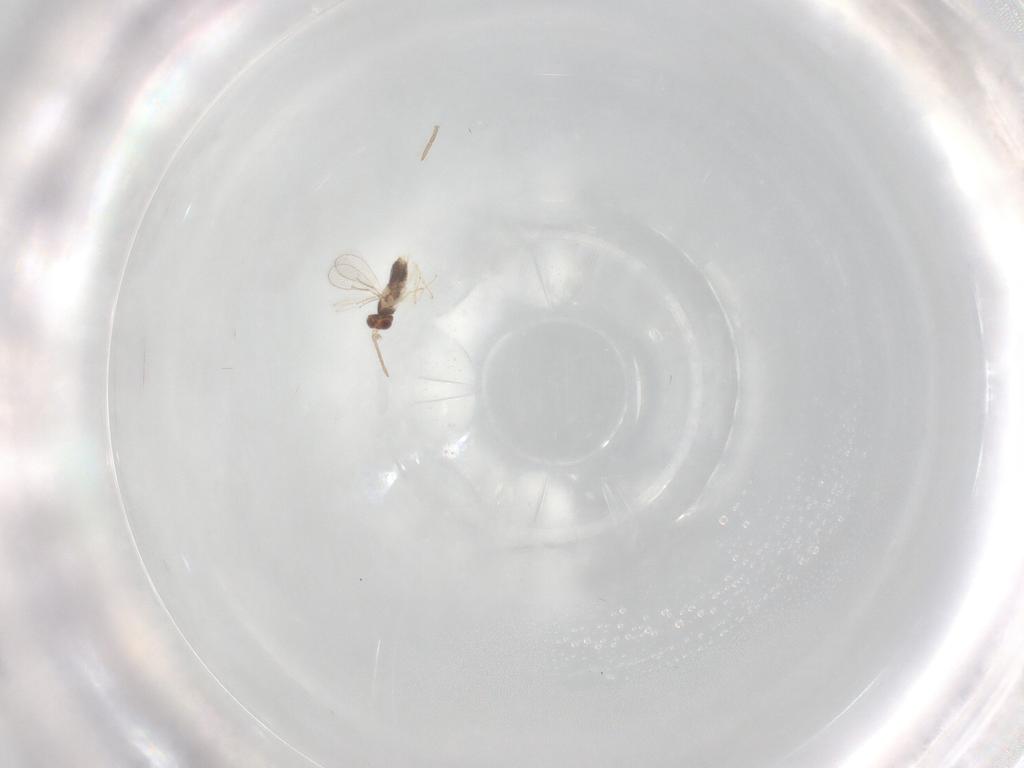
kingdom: Animalia
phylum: Arthropoda
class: Insecta
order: Hymenoptera
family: Aphelinidae
